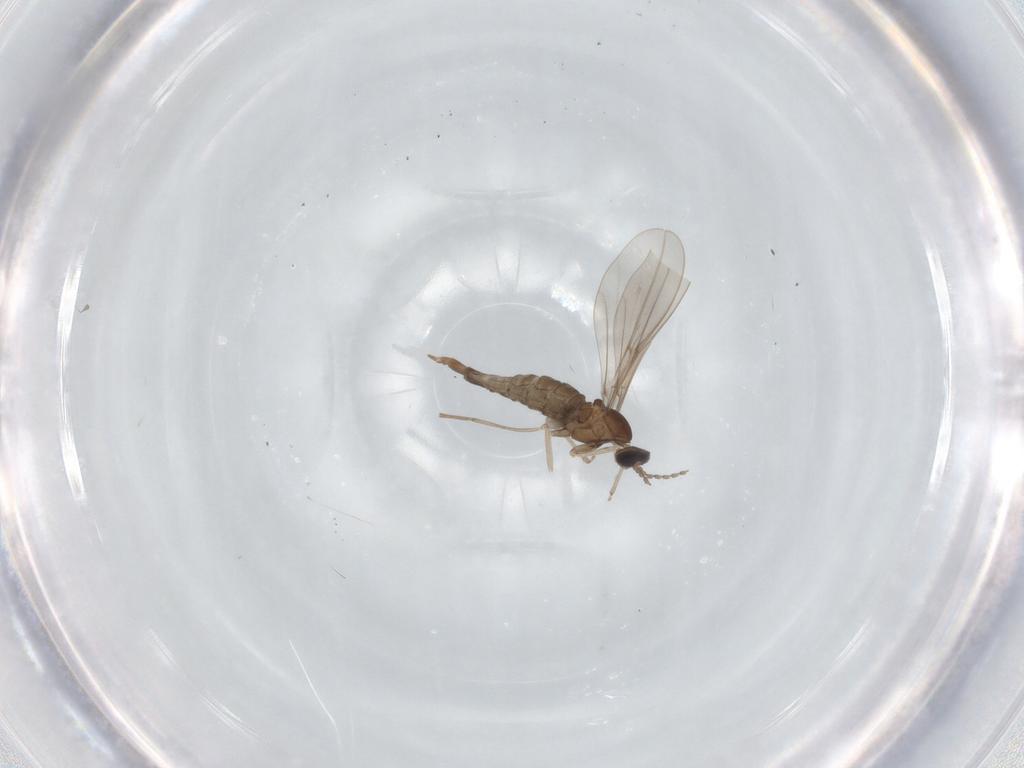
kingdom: Animalia
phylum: Arthropoda
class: Insecta
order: Diptera
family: Cecidomyiidae
